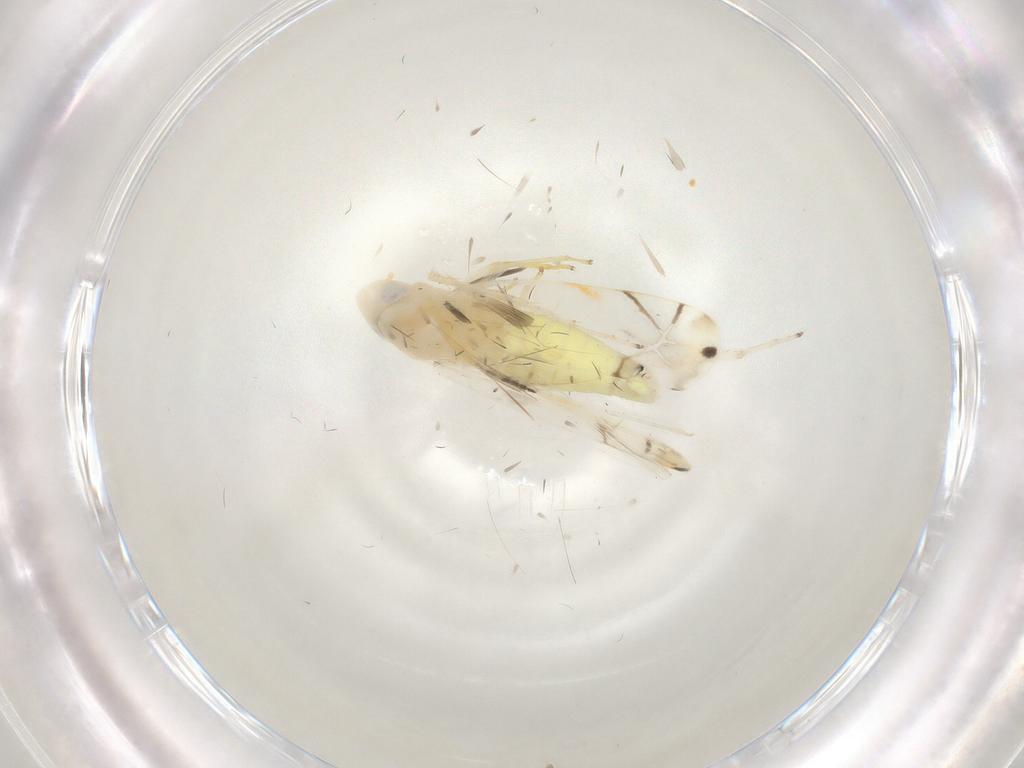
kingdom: Animalia
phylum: Arthropoda
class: Insecta
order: Hemiptera
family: Cicadellidae
